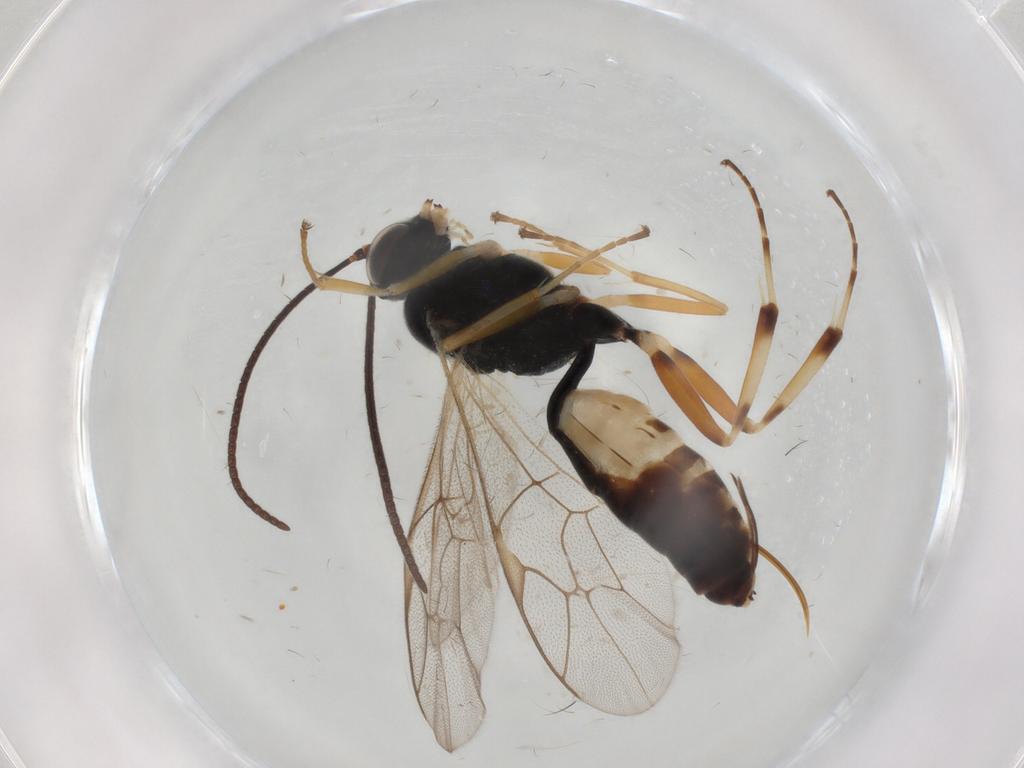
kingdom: Animalia
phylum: Arthropoda
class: Insecta
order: Hymenoptera
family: Ichneumonidae
